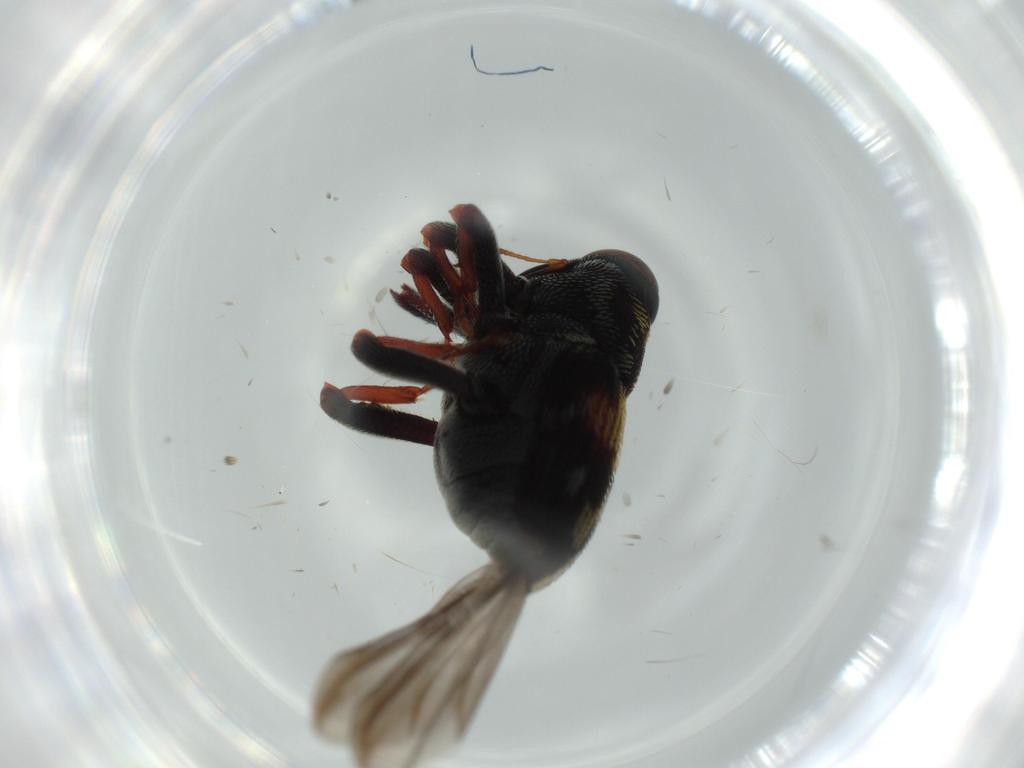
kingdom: Animalia
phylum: Arthropoda
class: Insecta
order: Coleoptera
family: Curculionidae
